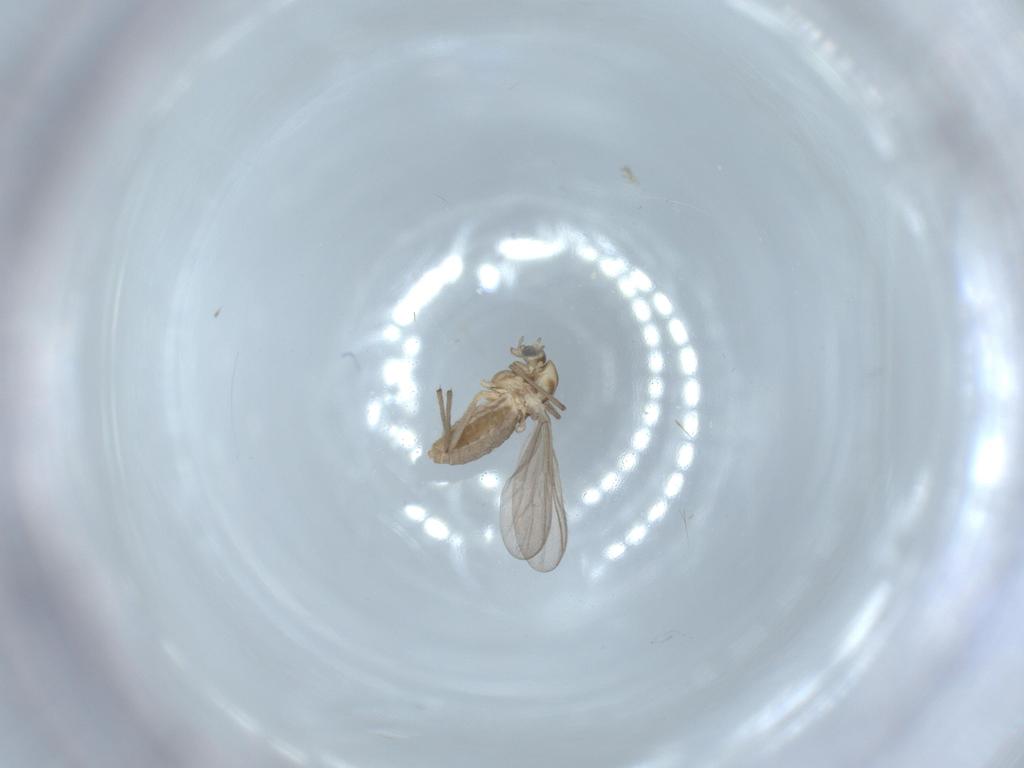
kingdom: Animalia
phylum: Arthropoda
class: Insecta
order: Diptera
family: Chironomidae
